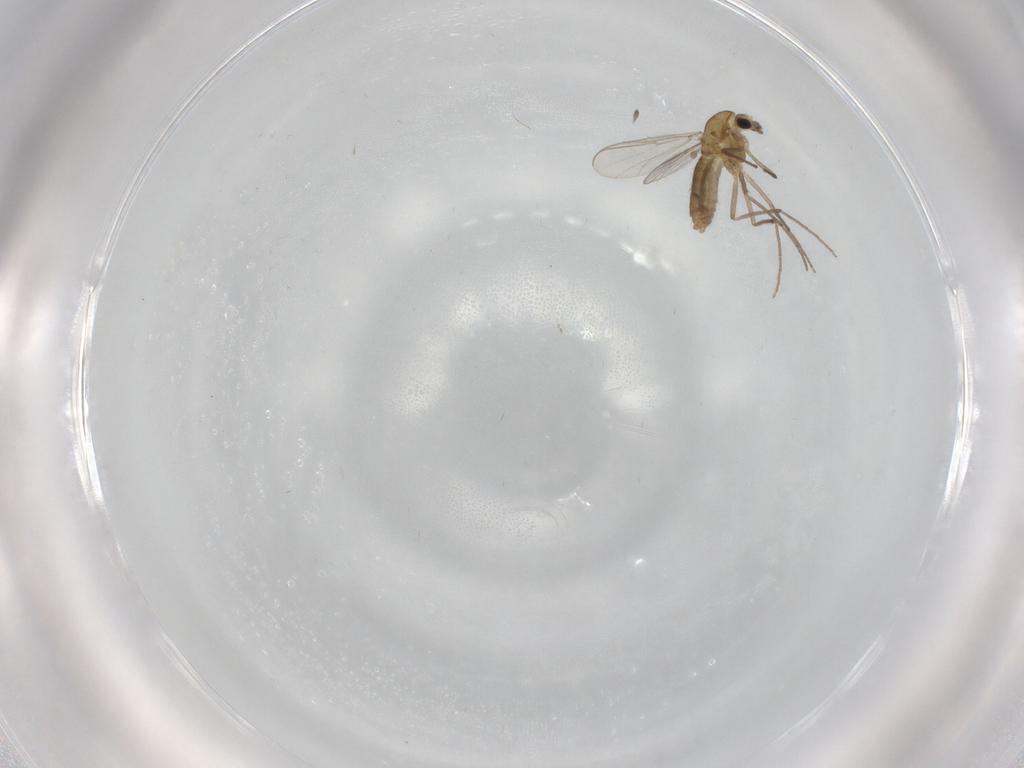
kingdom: Animalia
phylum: Arthropoda
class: Insecta
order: Diptera
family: Chironomidae
